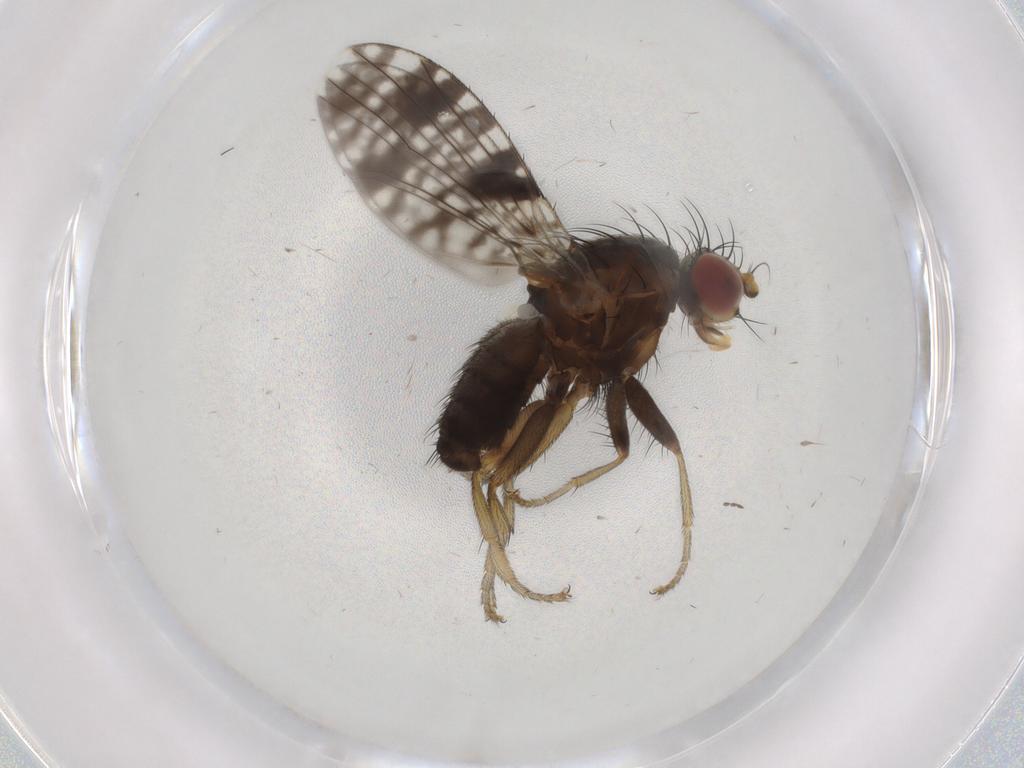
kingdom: Animalia
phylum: Arthropoda
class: Insecta
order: Diptera
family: Tephritidae
